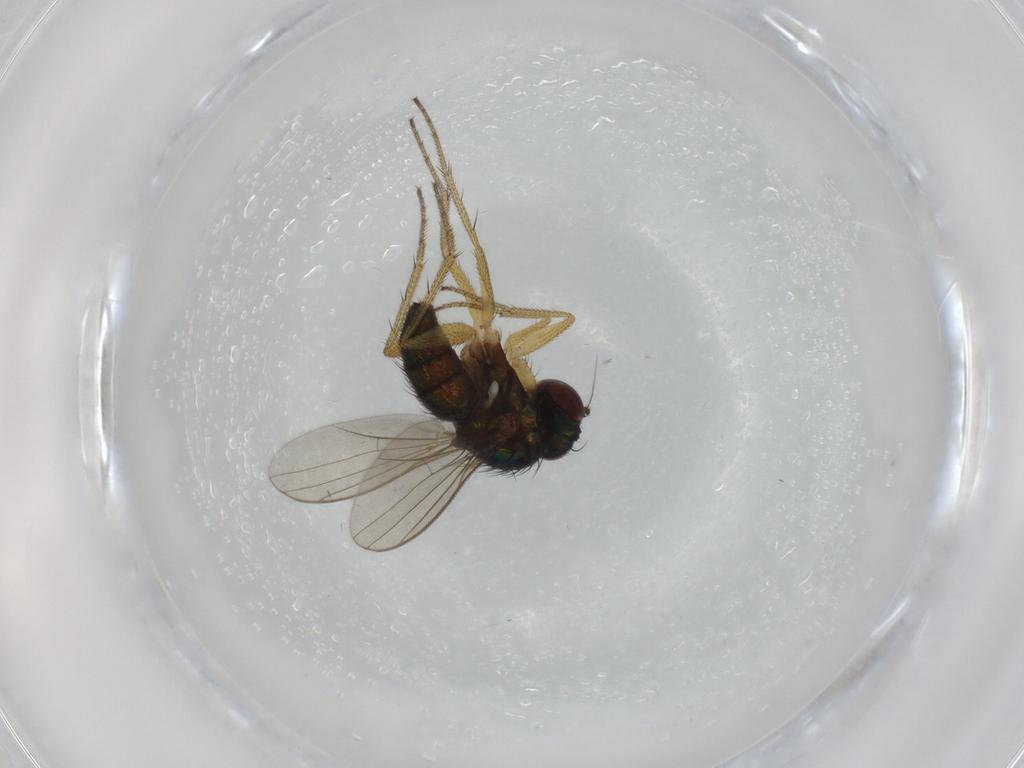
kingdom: Animalia
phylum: Arthropoda
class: Insecta
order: Diptera
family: Dolichopodidae
